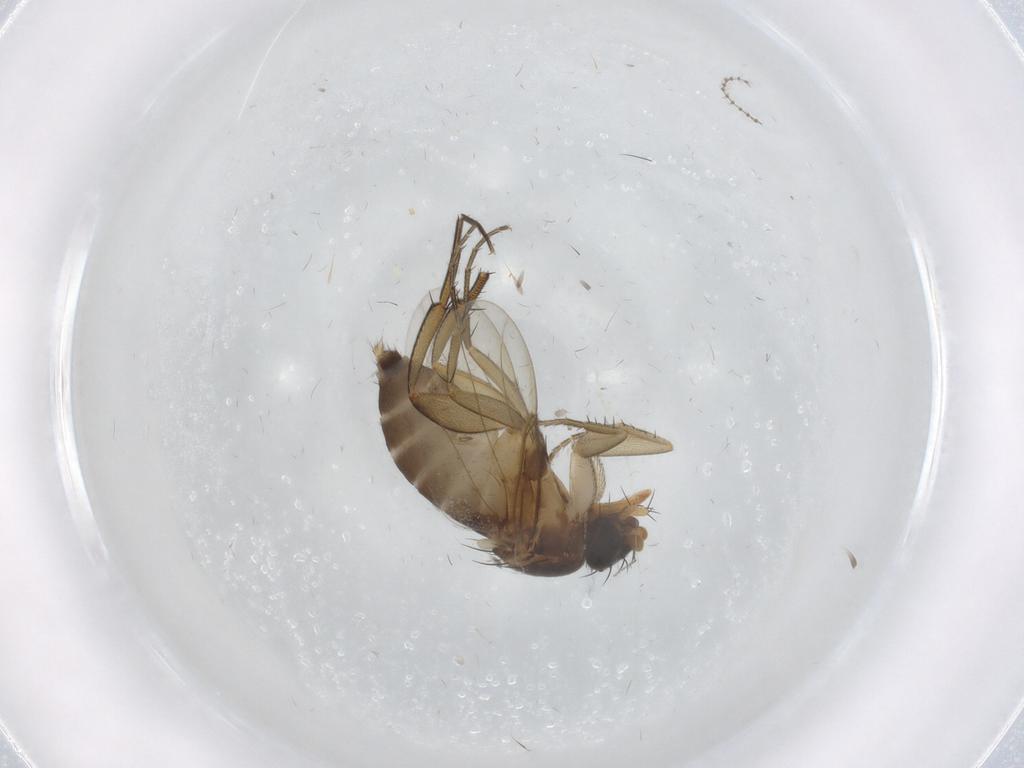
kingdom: Animalia
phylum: Arthropoda
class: Insecta
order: Diptera
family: Phoridae
